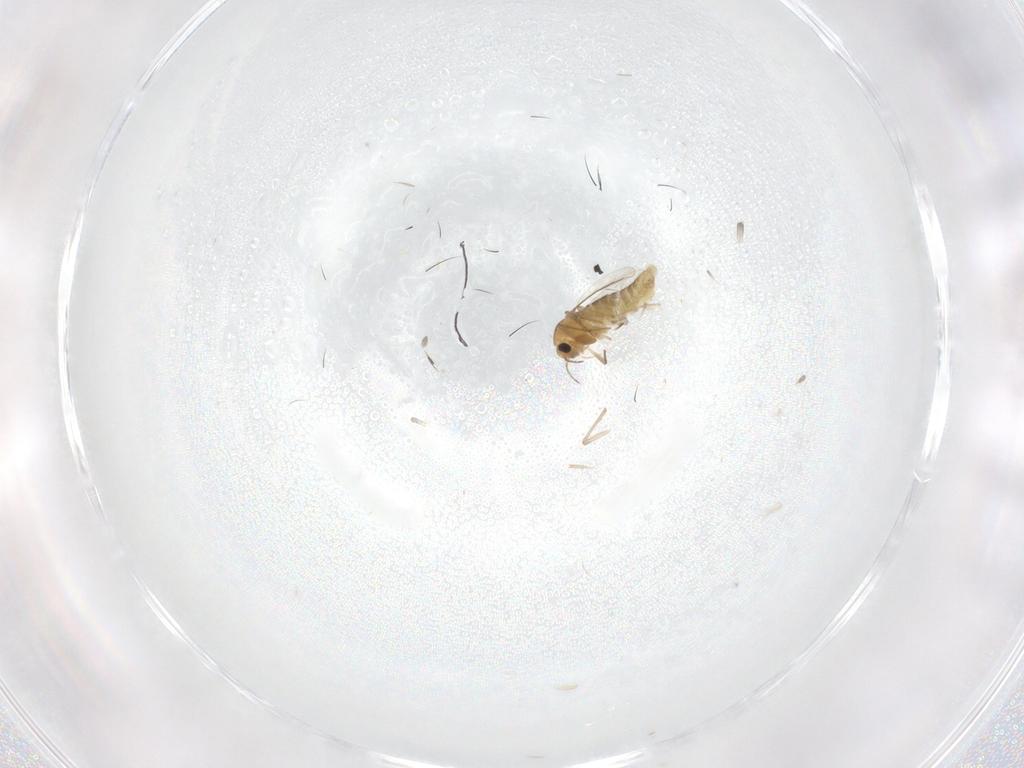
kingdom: Animalia
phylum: Arthropoda
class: Insecta
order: Diptera
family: Chironomidae
